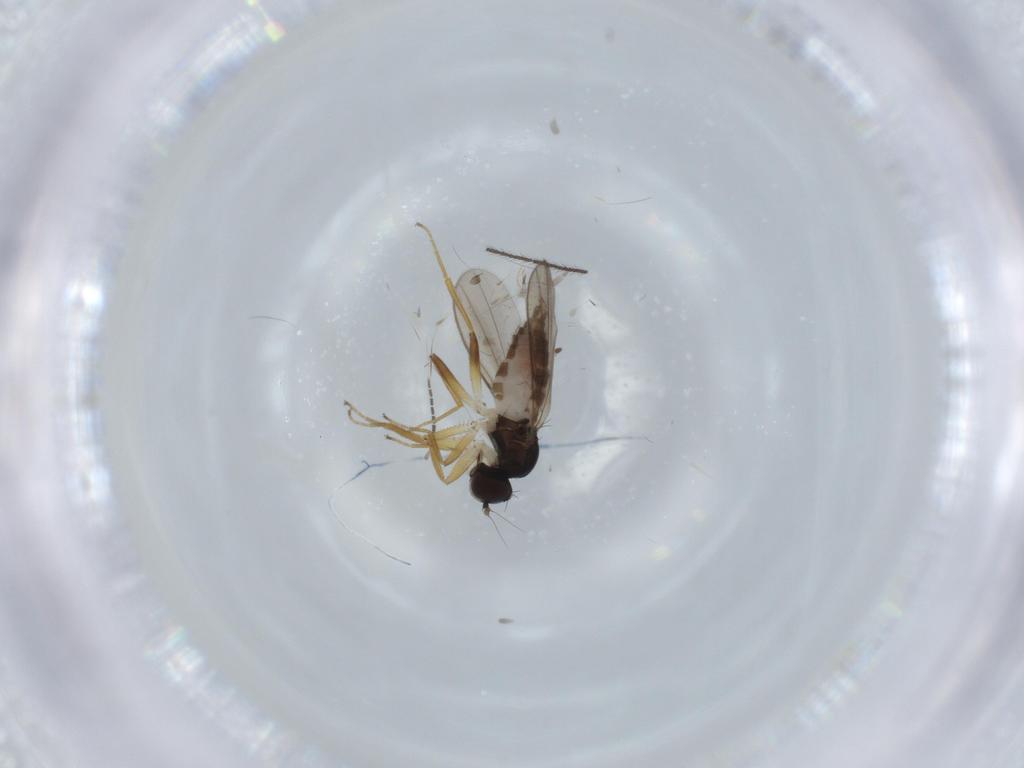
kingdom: Animalia
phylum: Arthropoda
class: Insecta
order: Diptera
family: Hybotidae
